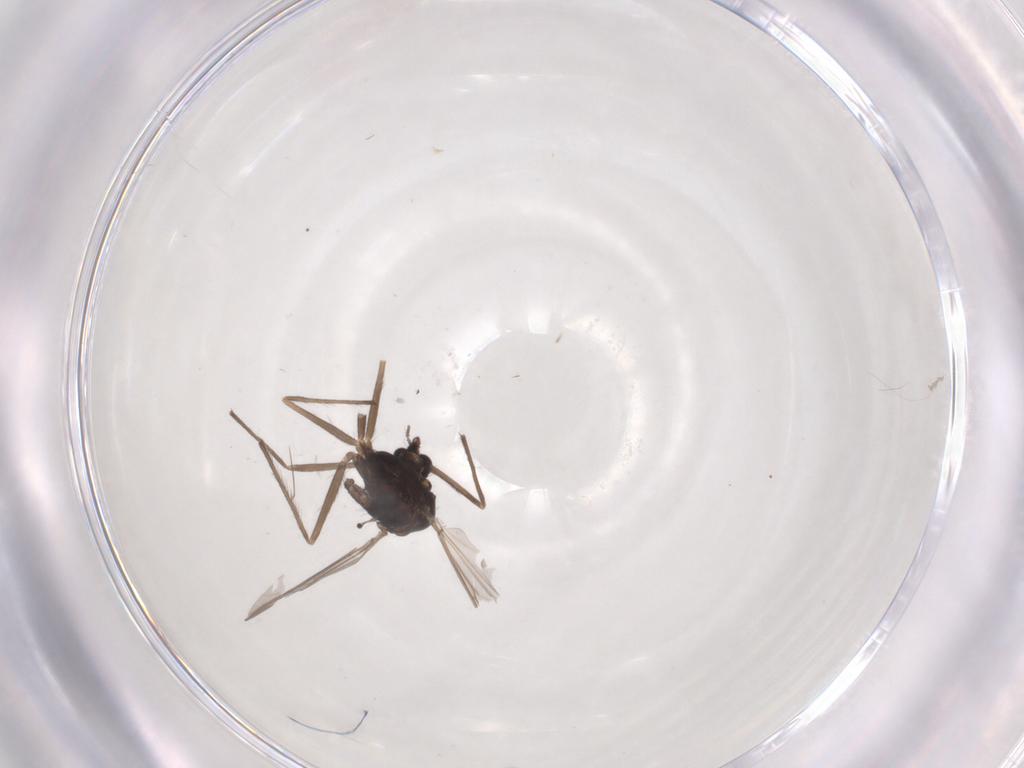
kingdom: Animalia
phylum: Arthropoda
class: Insecta
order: Diptera
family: Chironomidae
